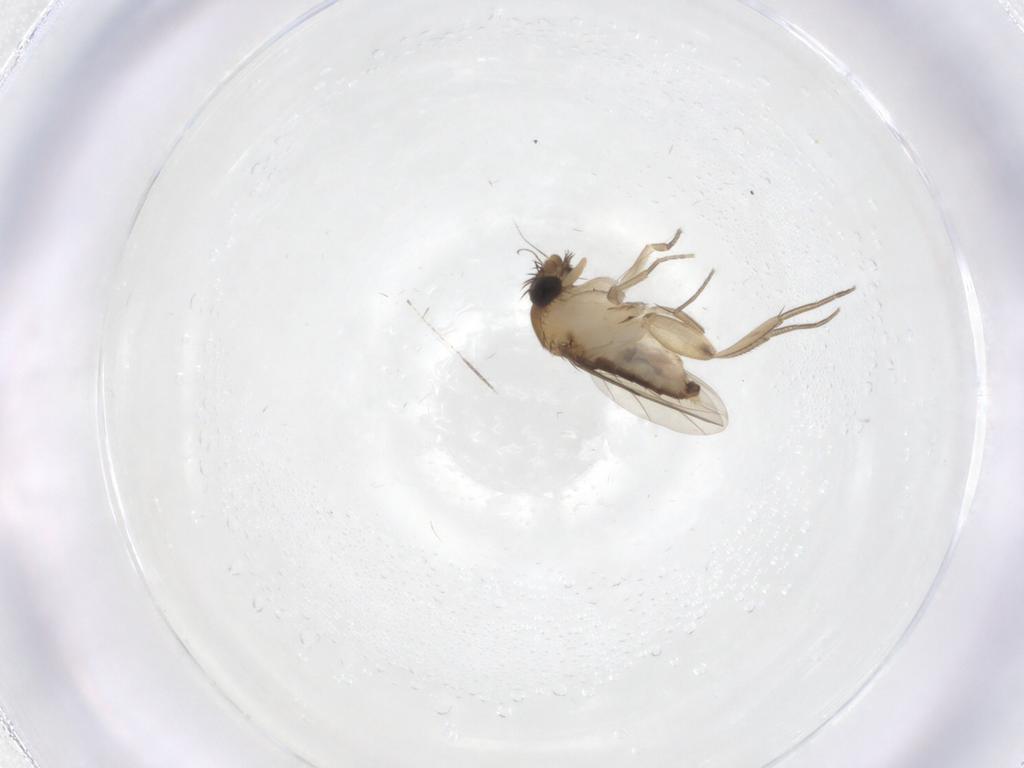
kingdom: Animalia
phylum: Arthropoda
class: Insecta
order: Diptera
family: Phoridae
